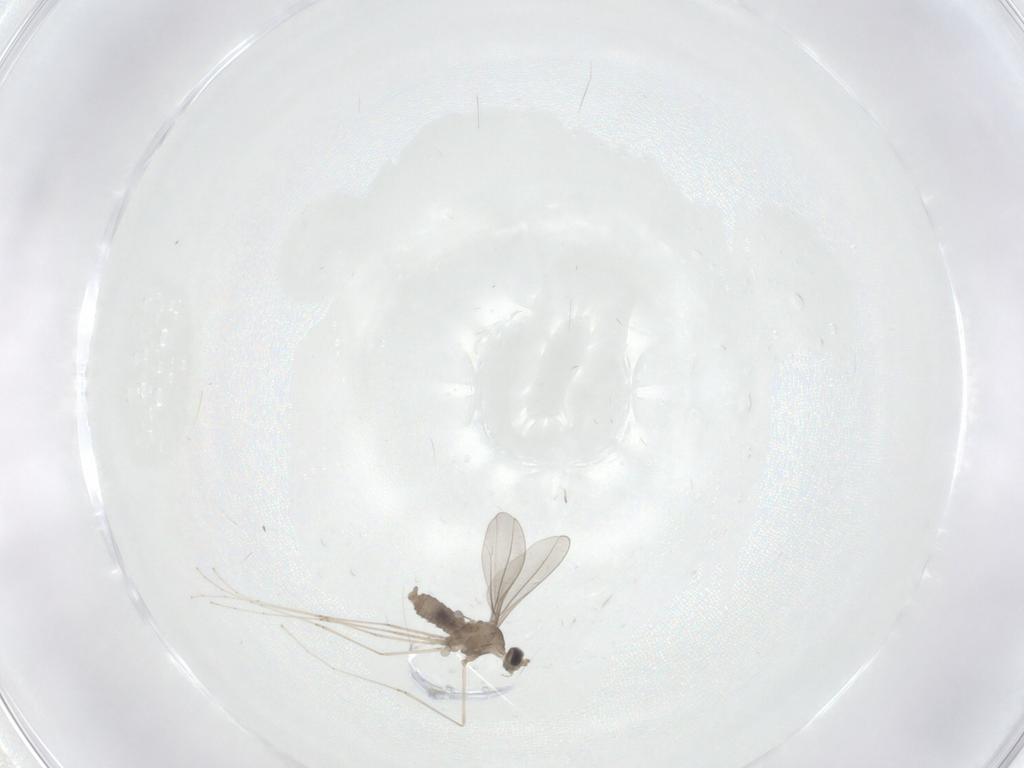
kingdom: Animalia
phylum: Arthropoda
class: Insecta
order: Diptera
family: Cecidomyiidae
